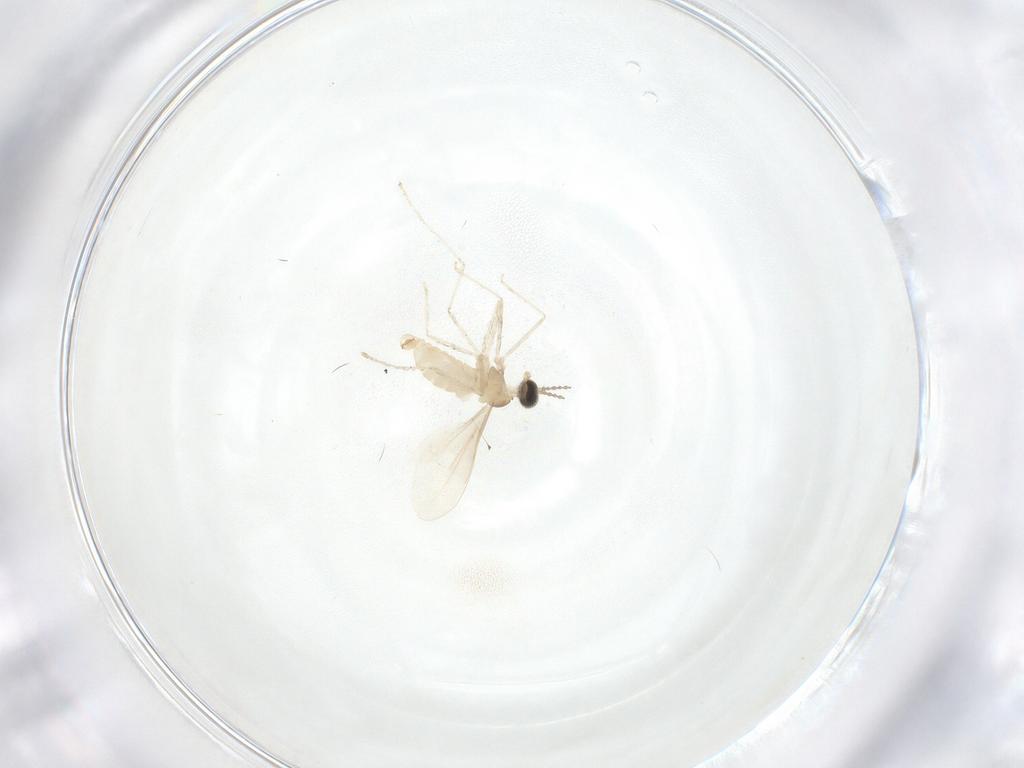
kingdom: Animalia
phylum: Arthropoda
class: Insecta
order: Diptera
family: Cecidomyiidae
